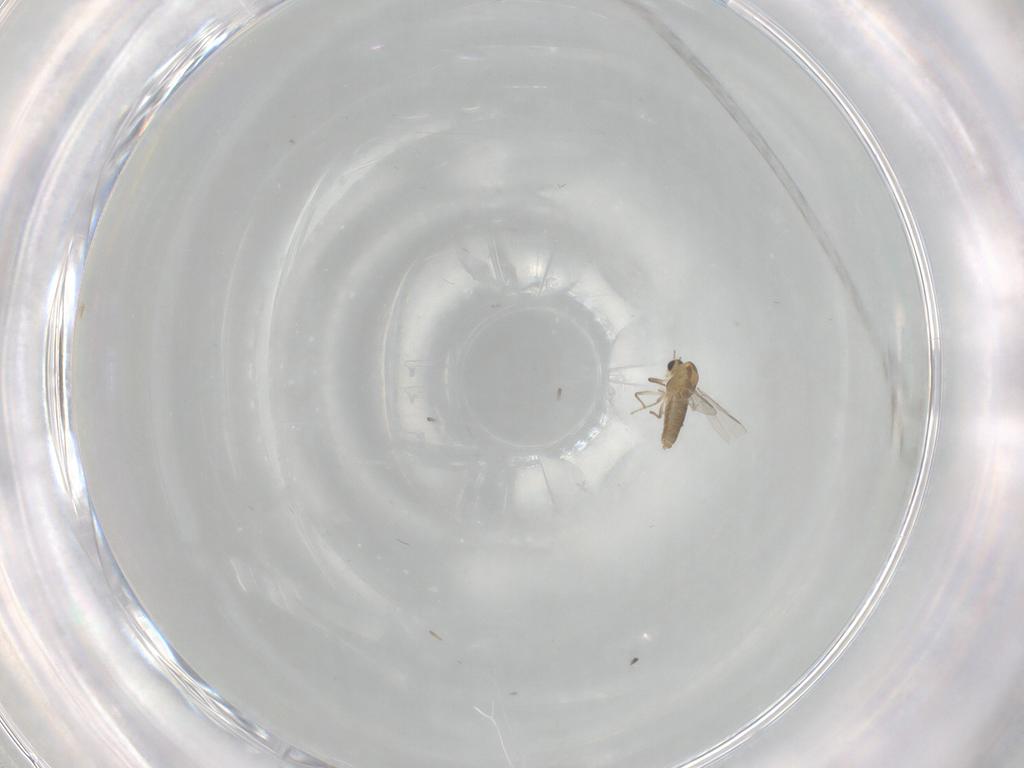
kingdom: Animalia
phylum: Arthropoda
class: Insecta
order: Diptera
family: Chironomidae
